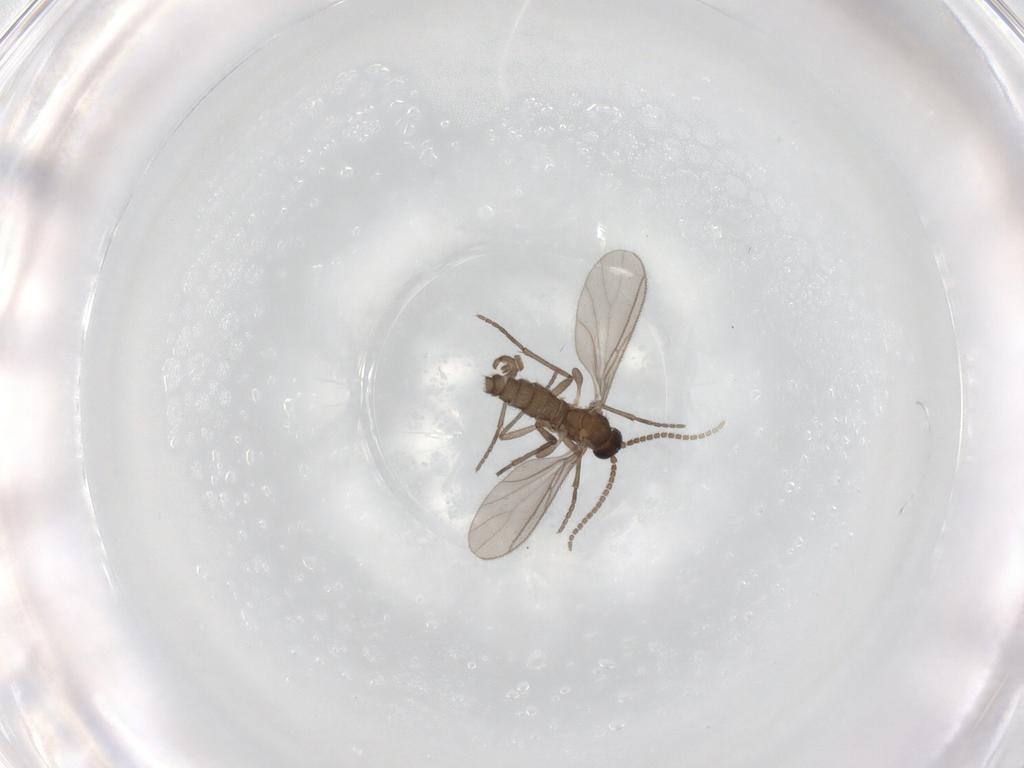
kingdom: Animalia
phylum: Arthropoda
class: Insecta
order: Diptera
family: Sciaridae
